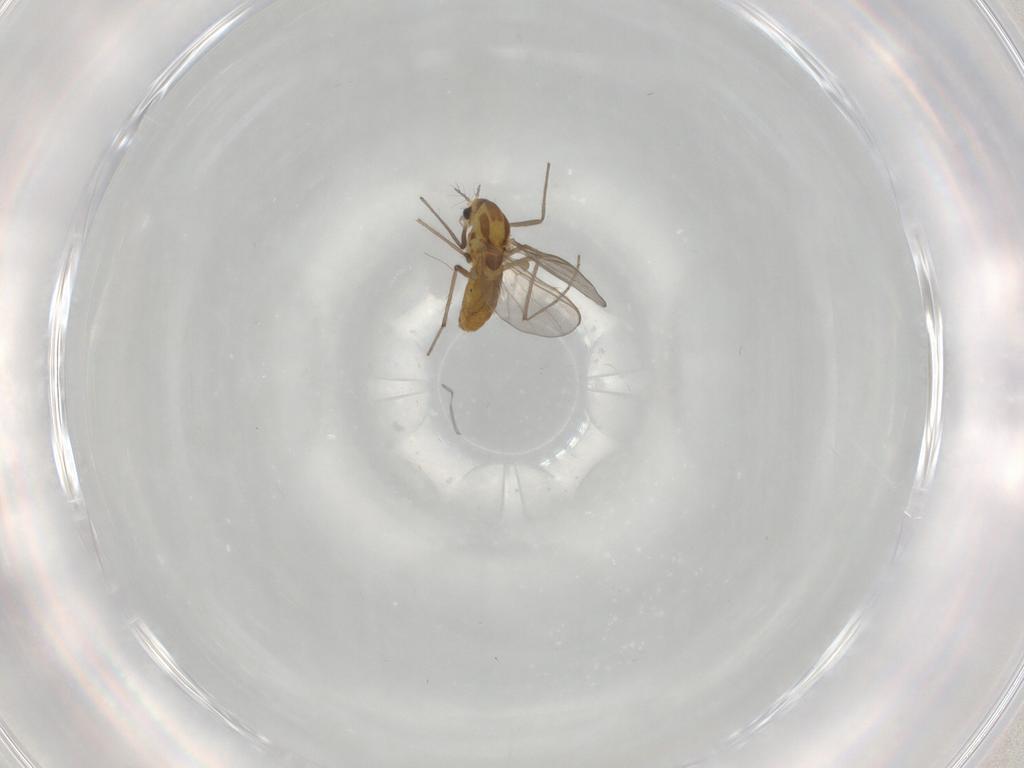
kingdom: Animalia
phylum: Arthropoda
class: Insecta
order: Diptera
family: Chironomidae
